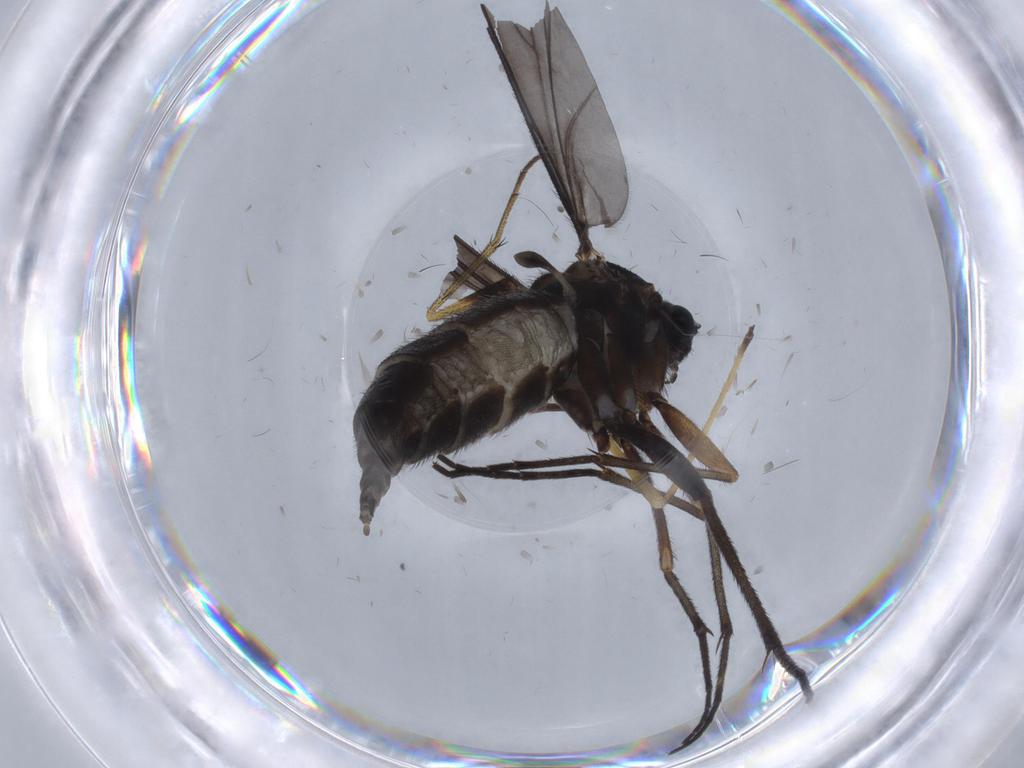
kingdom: Animalia
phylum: Arthropoda
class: Insecta
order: Diptera
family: Sciaridae
